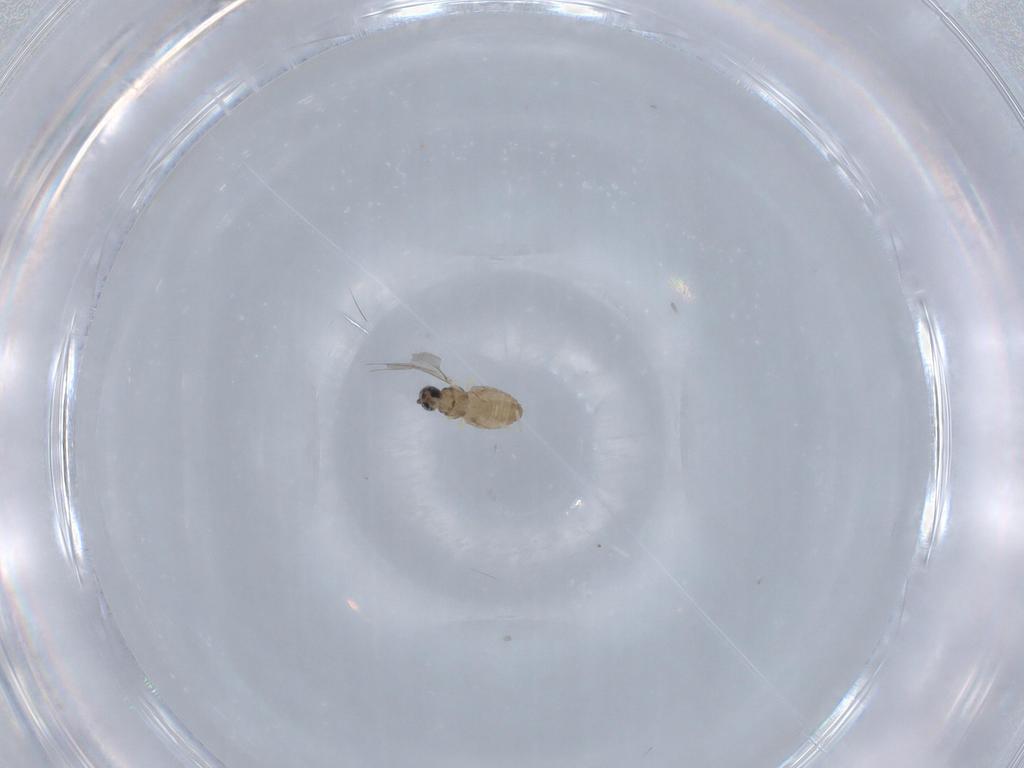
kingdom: Animalia
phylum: Arthropoda
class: Insecta
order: Diptera
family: Cecidomyiidae
